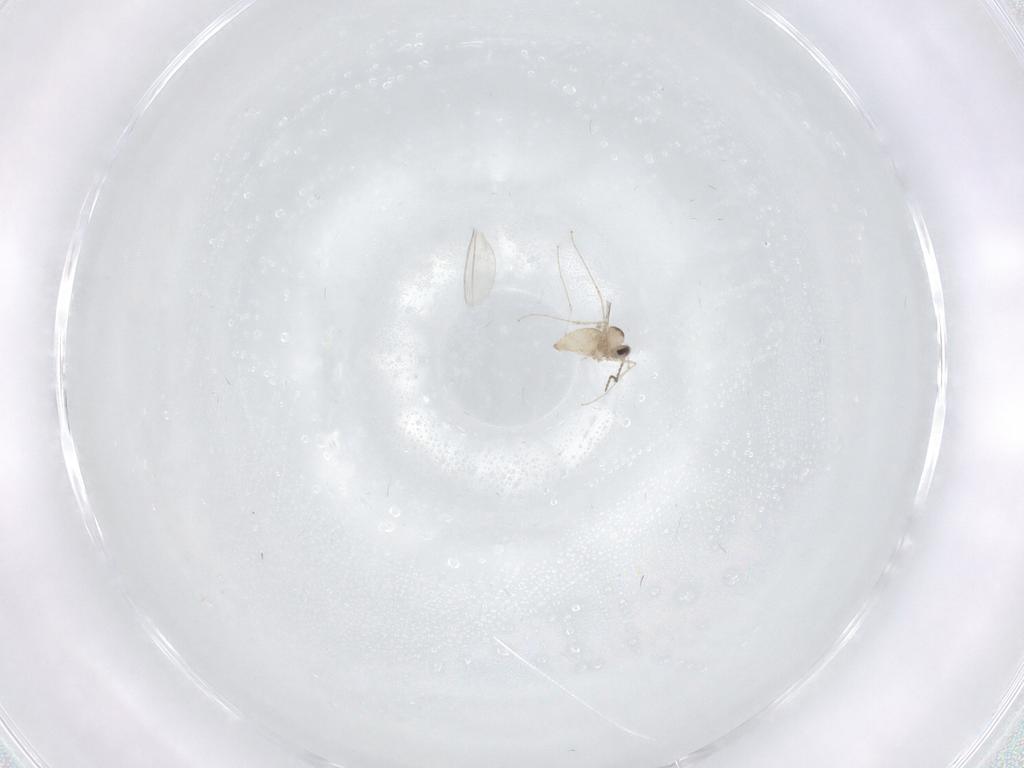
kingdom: Animalia
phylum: Arthropoda
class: Insecta
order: Diptera
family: Cecidomyiidae
